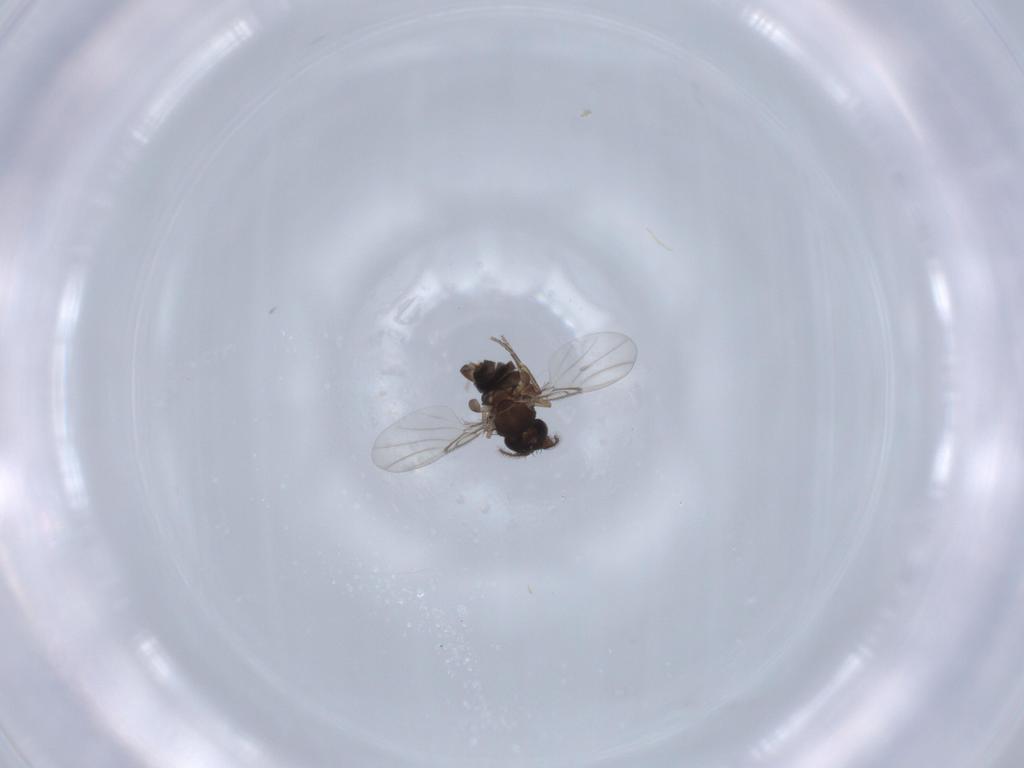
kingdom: Animalia
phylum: Arthropoda
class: Insecta
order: Diptera
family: Phoridae
